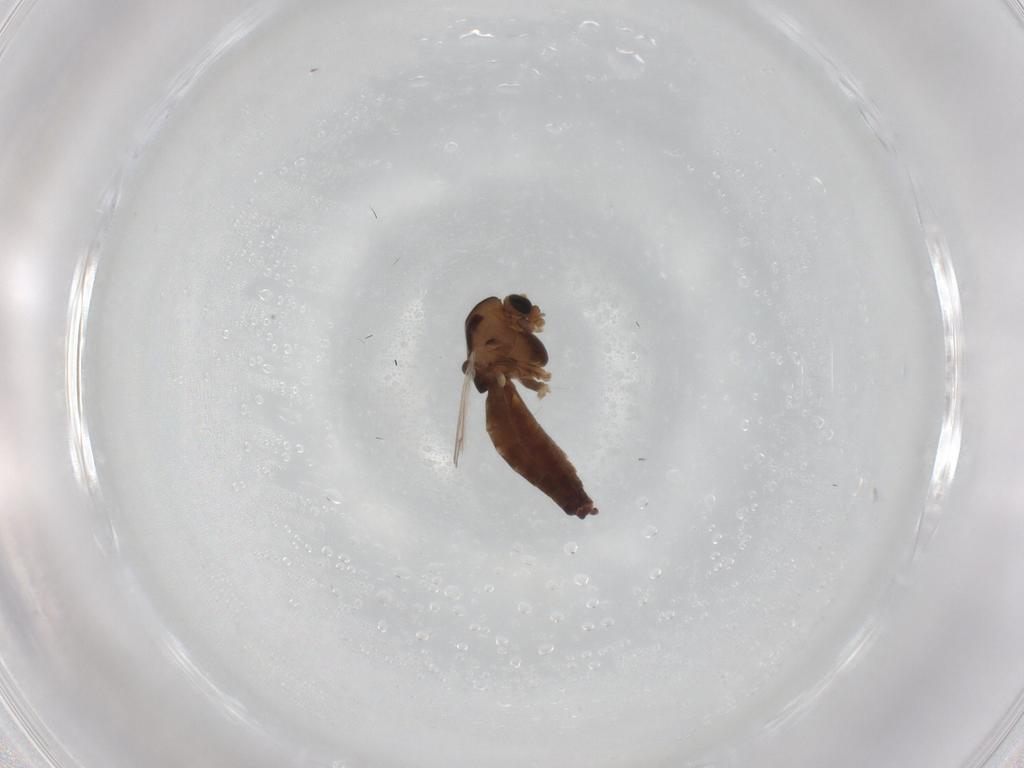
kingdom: Animalia
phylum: Arthropoda
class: Insecta
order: Diptera
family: Chironomidae
